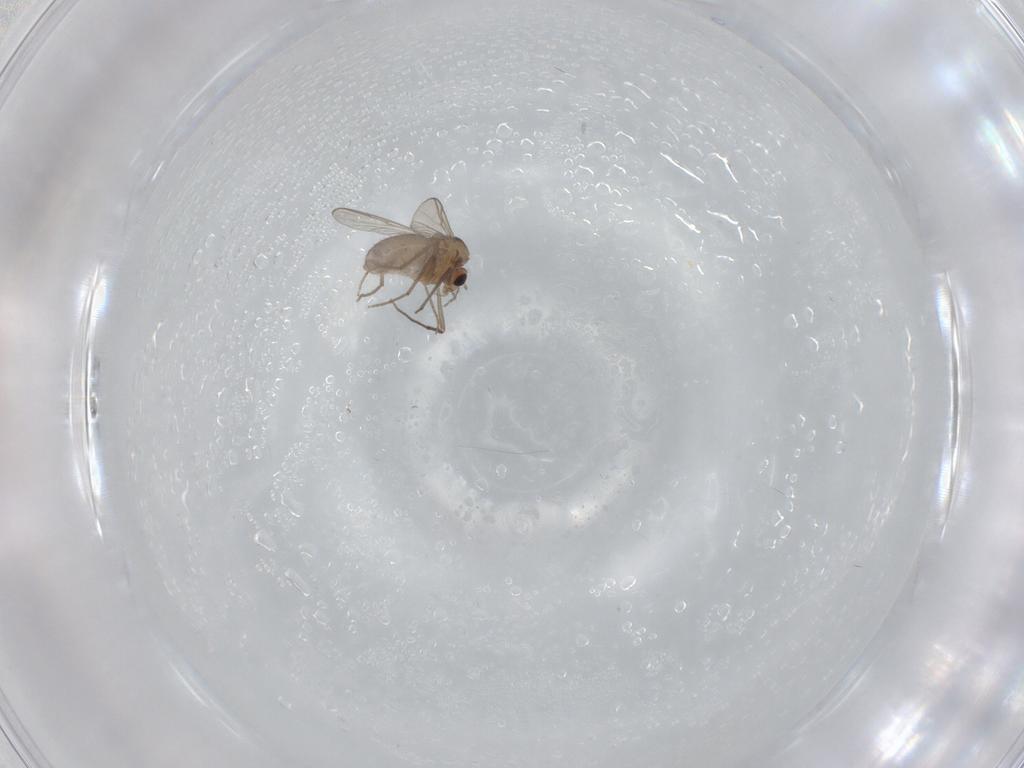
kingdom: Animalia
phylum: Arthropoda
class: Insecta
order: Diptera
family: Chironomidae
